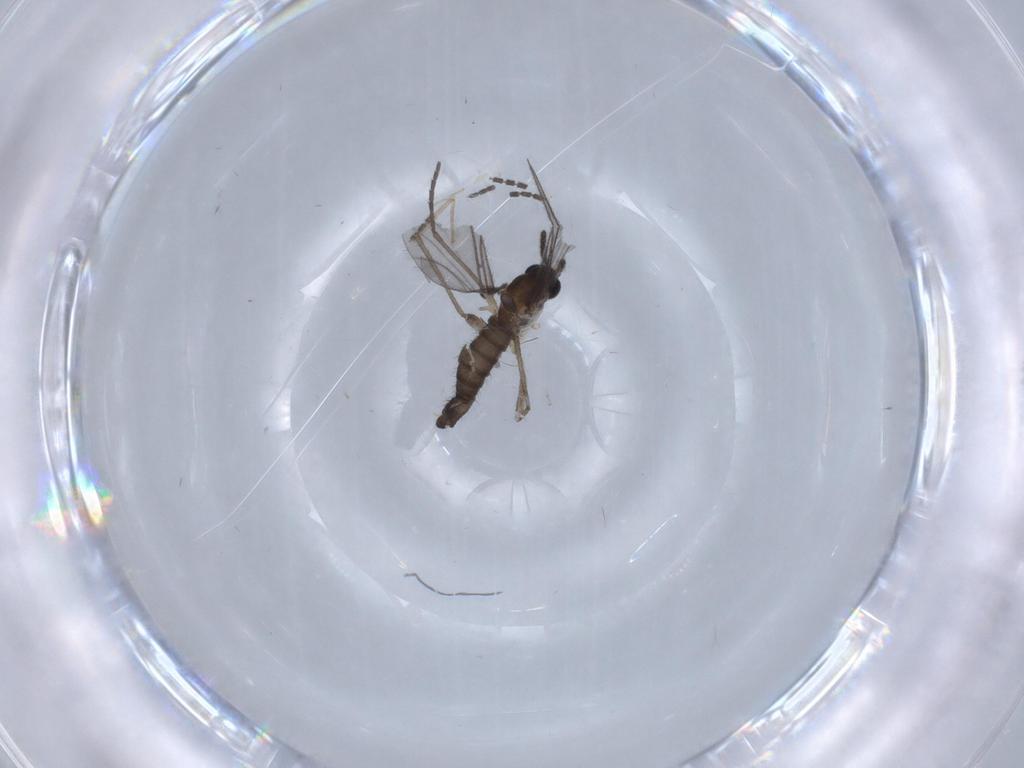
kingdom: Animalia
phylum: Arthropoda
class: Insecta
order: Diptera
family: Sciaridae
